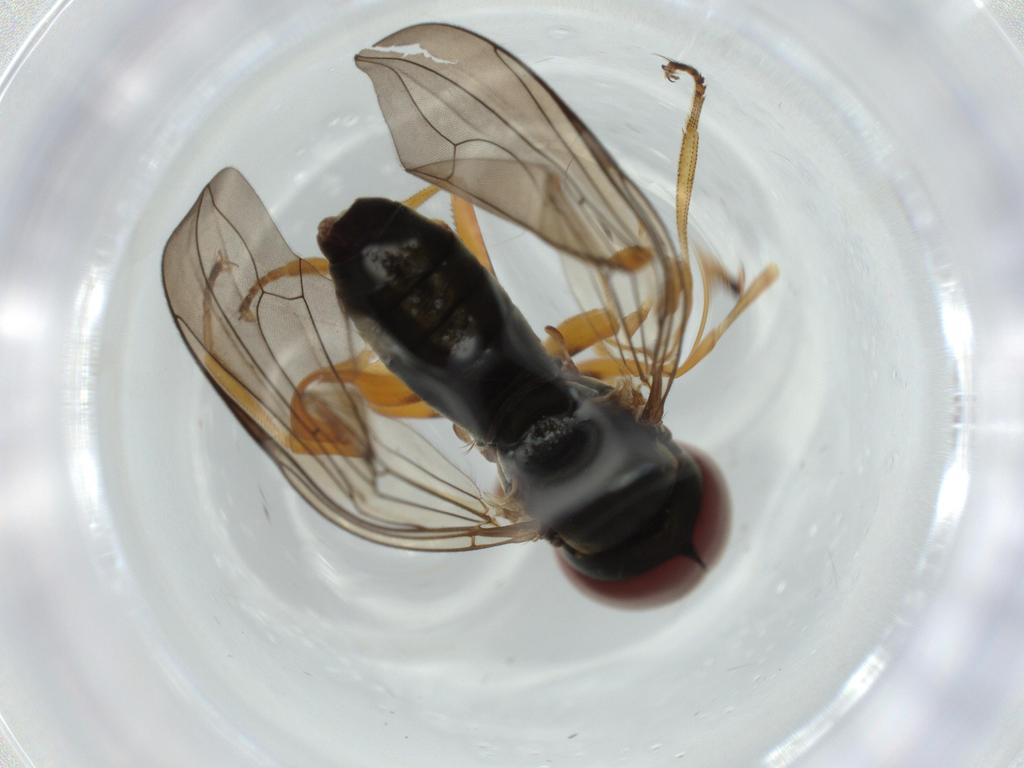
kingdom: Animalia
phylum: Arthropoda
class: Insecta
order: Diptera
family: Pipunculidae
